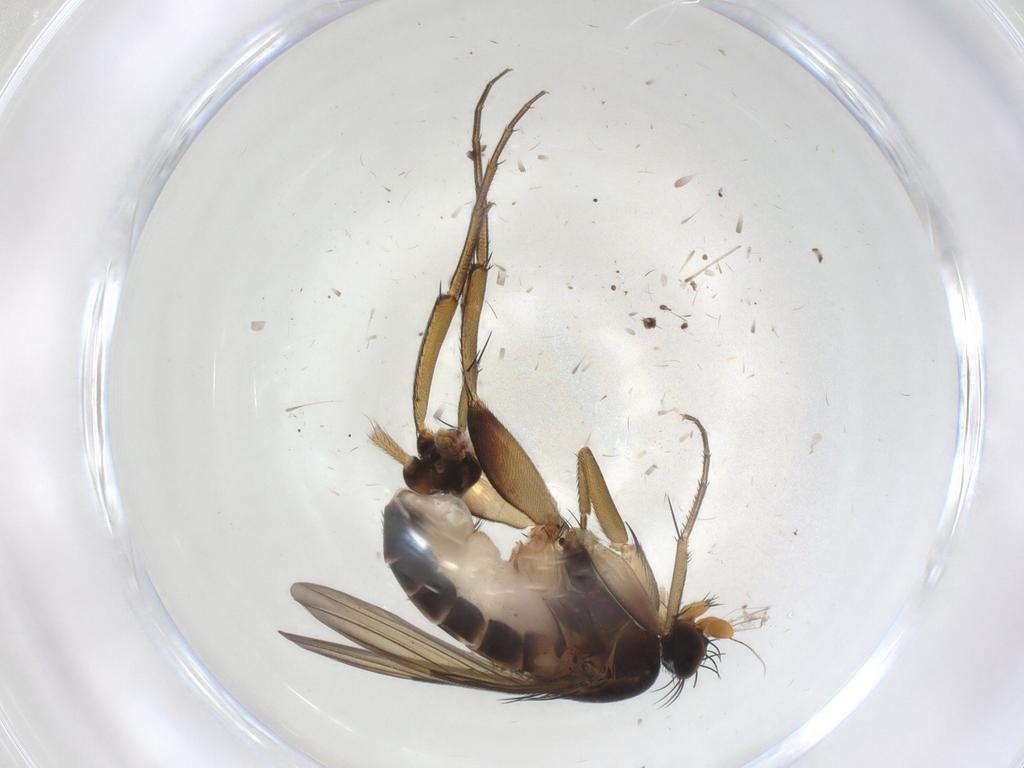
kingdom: Animalia
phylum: Arthropoda
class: Insecta
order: Diptera
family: Phoridae
